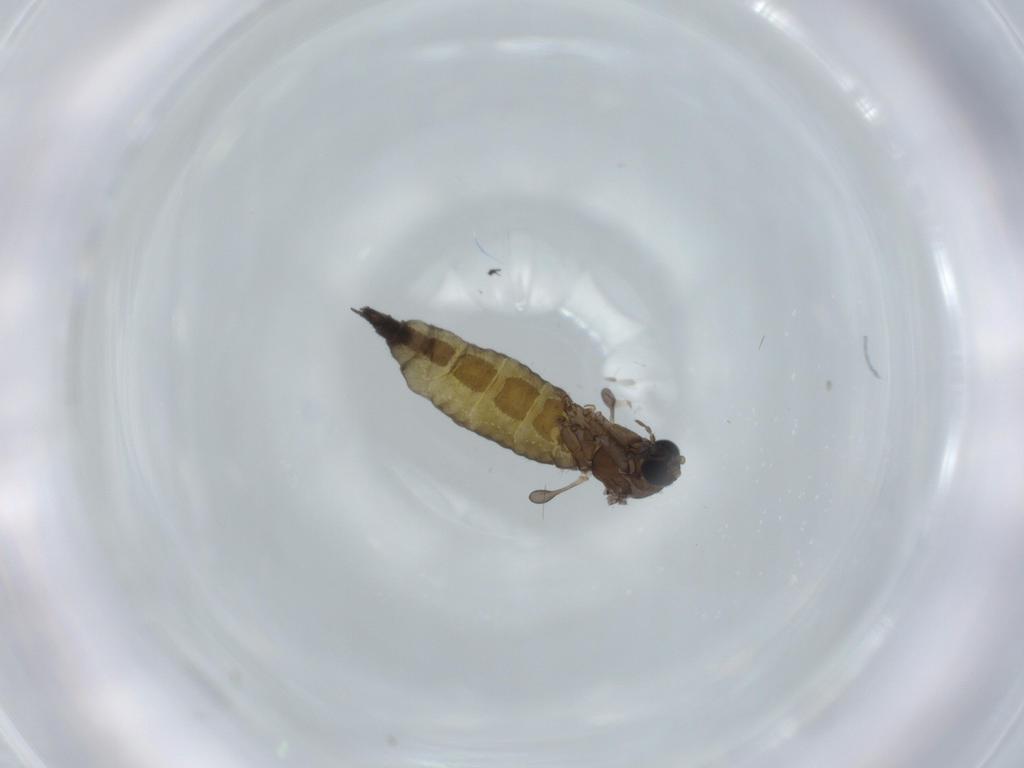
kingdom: Animalia
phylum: Arthropoda
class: Insecta
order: Diptera
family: Sciaridae
